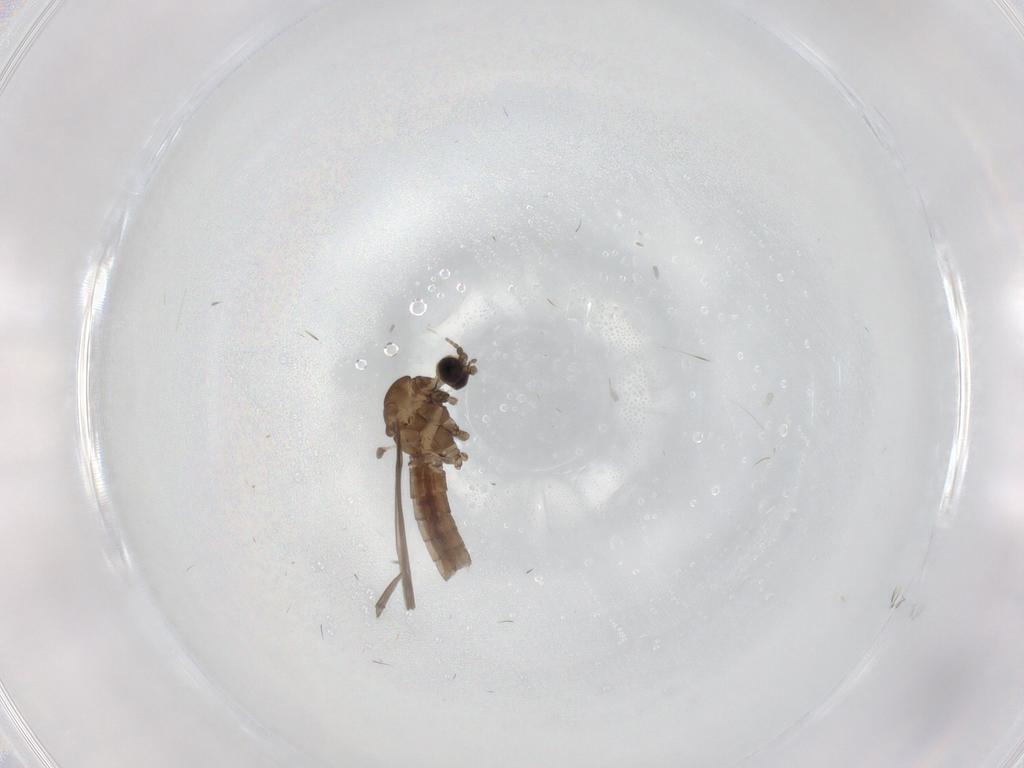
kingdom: Animalia
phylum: Arthropoda
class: Insecta
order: Diptera
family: Limoniidae
